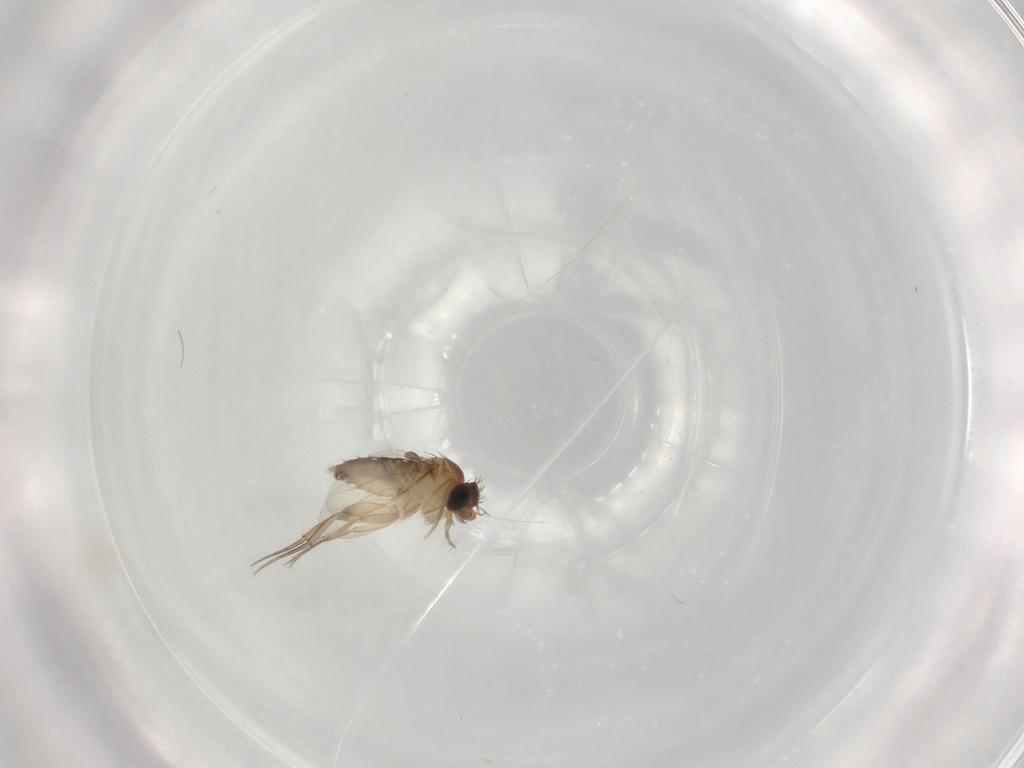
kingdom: Animalia
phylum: Arthropoda
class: Insecta
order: Diptera
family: Phoridae
